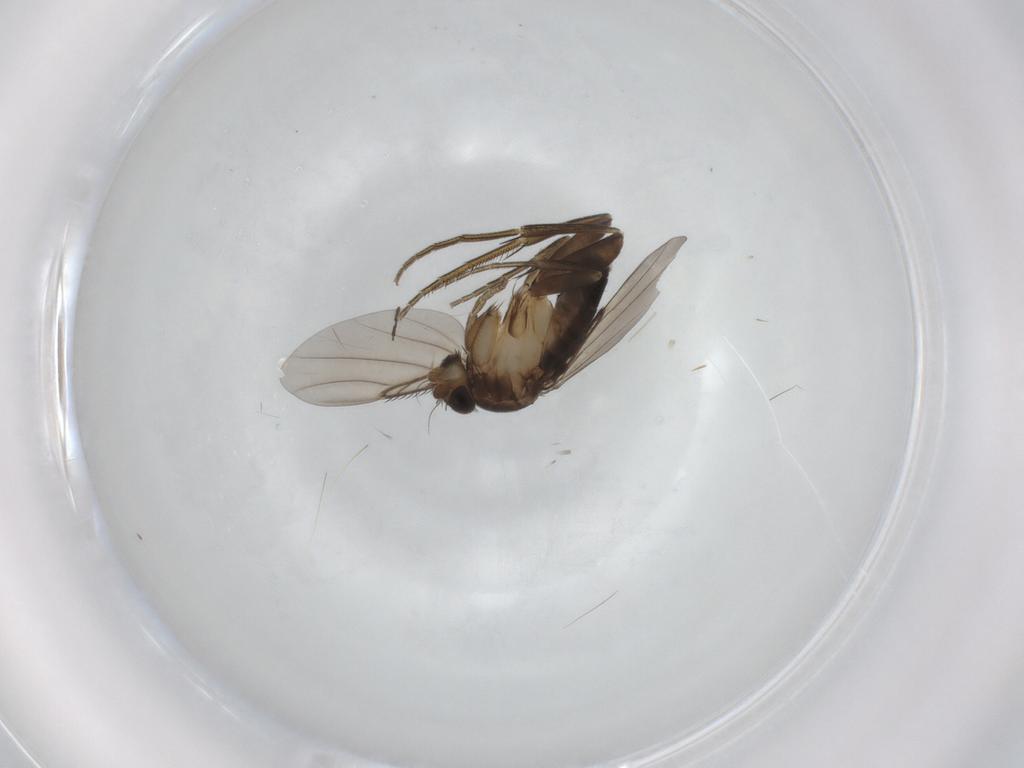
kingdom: Animalia
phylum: Arthropoda
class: Insecta
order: Diptera
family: Phoridae
